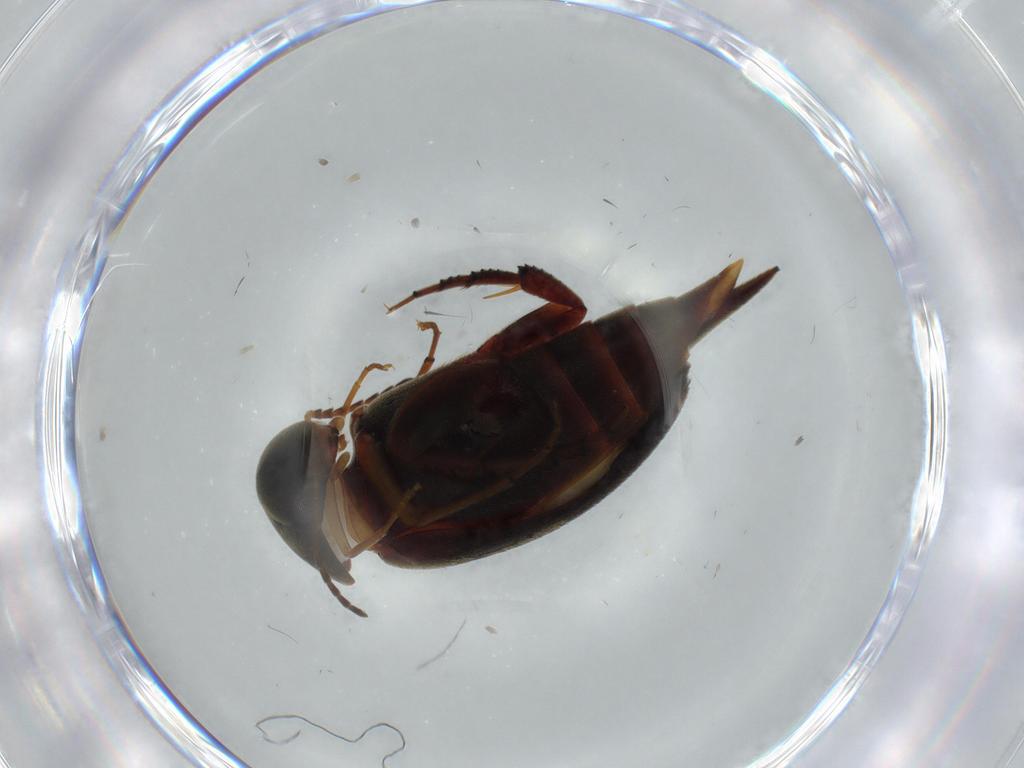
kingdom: Animalia
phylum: Arthropoda
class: Insecta
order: Coleoptera
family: Mordellidae
